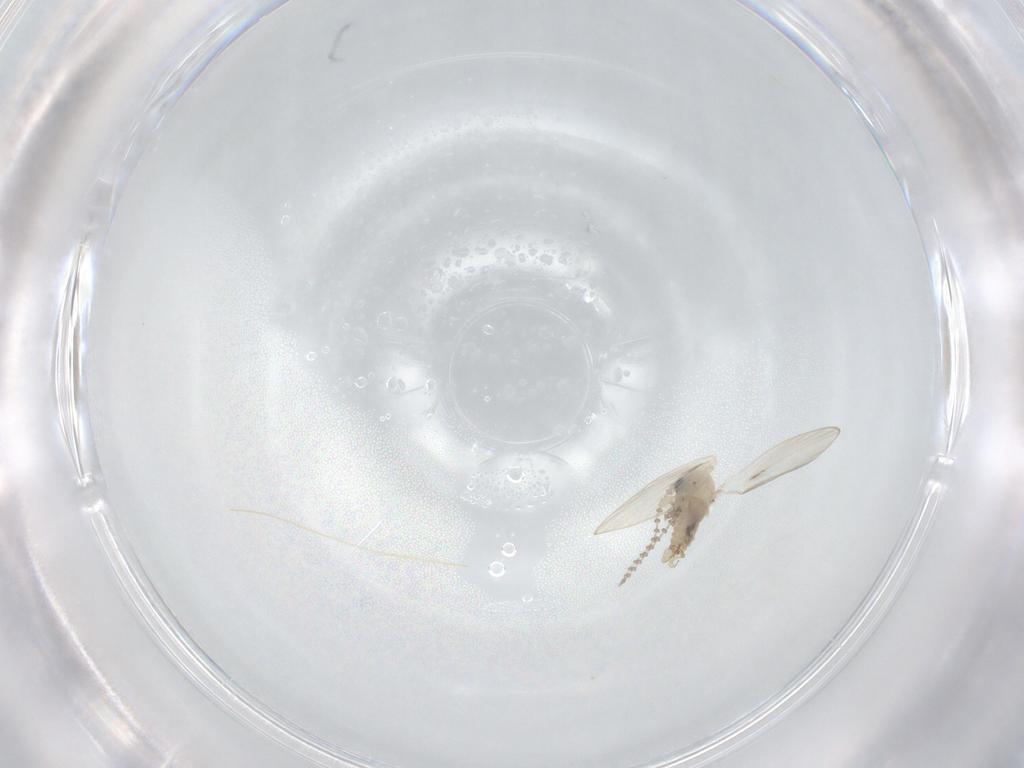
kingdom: Animalia
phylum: Arthropoda
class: Insecta
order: Diptera
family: Psychodidae
